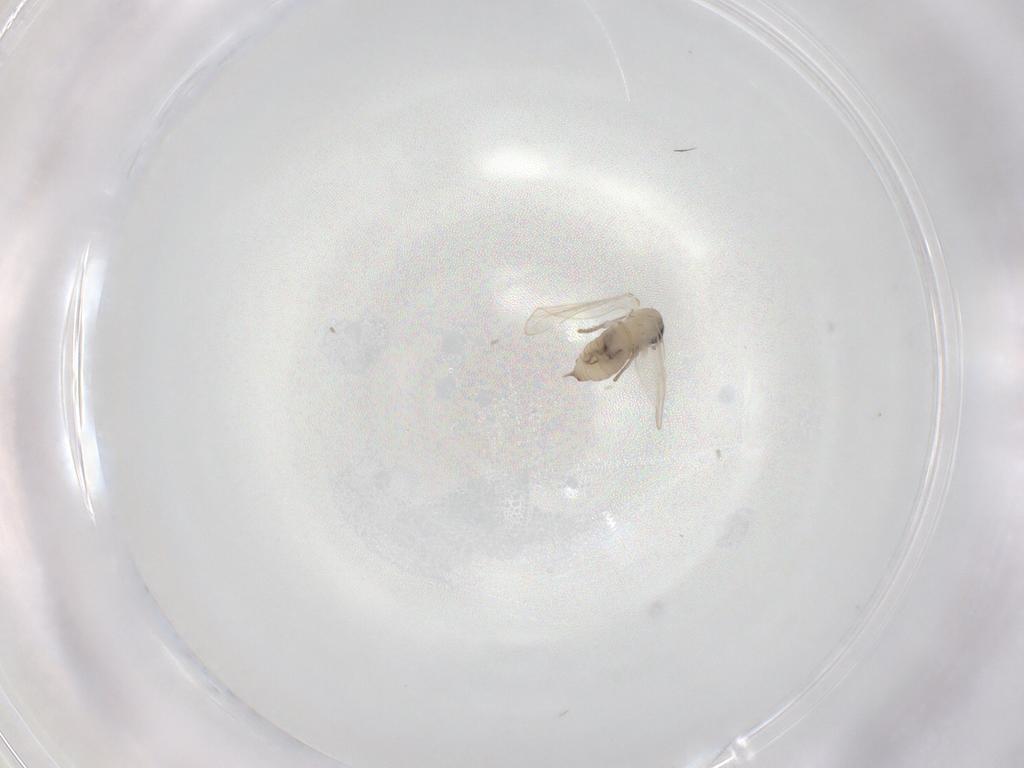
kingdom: Animalia
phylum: Arthropoda
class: Insecta
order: Diptera
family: Psychodidae
